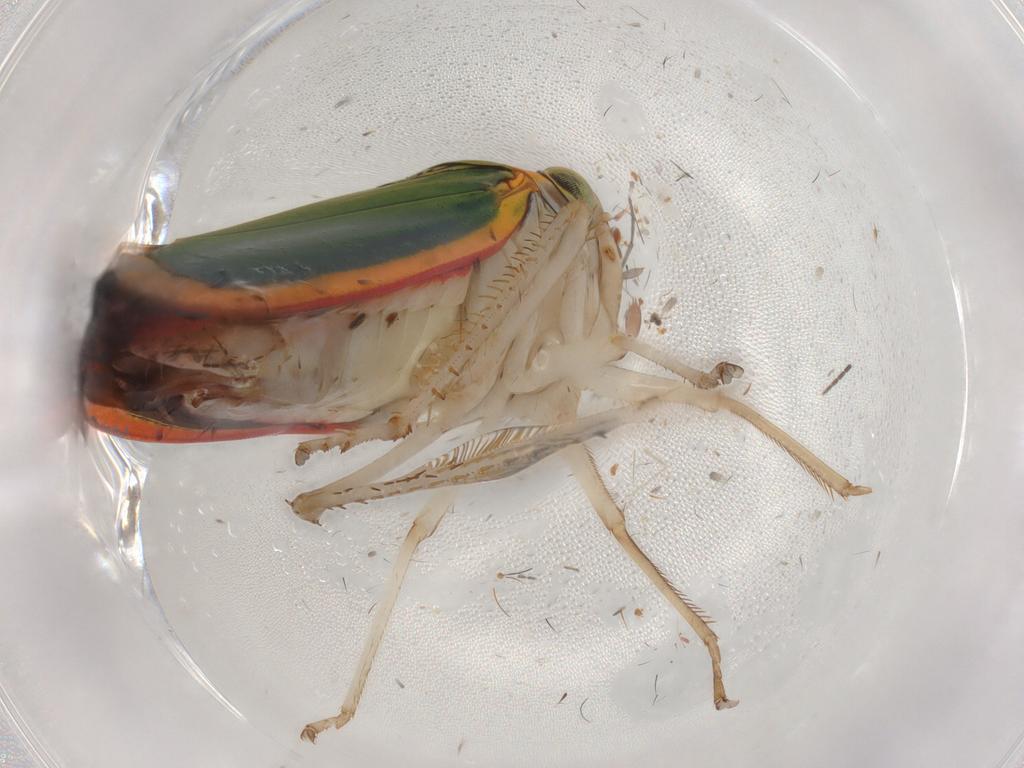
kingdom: Animalia
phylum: Arthropoda
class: Insecta
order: Hemiptera
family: Cicadellidae
